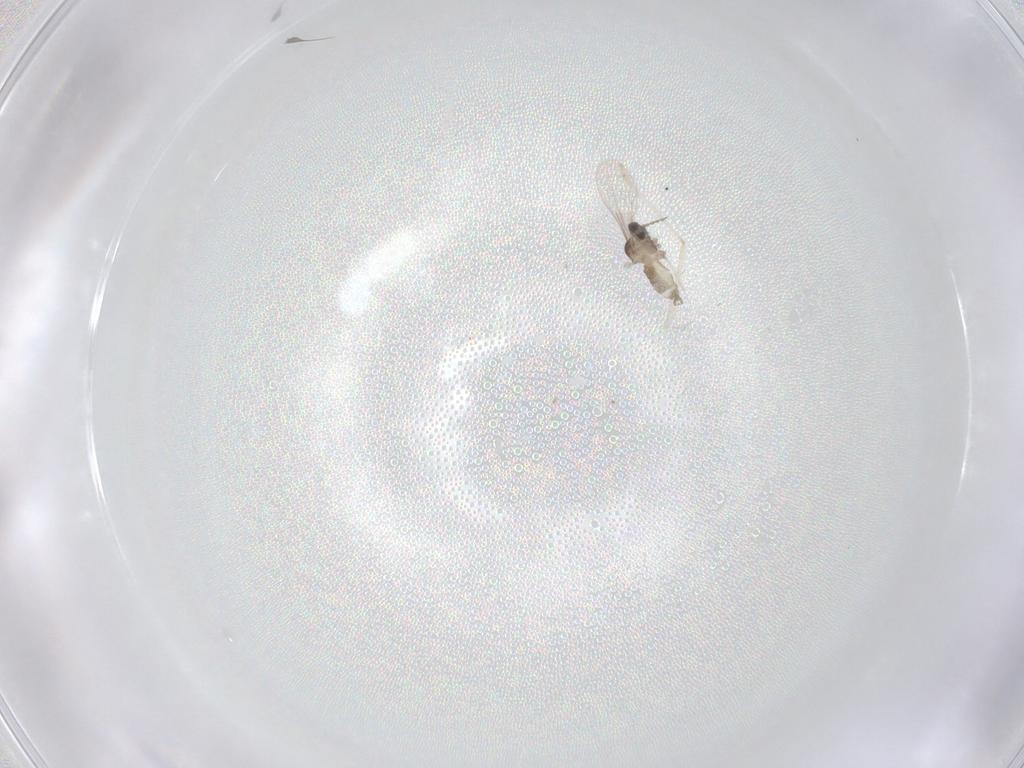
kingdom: Animalia
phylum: Arthropoda
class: Insecta
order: Diptera
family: Cecidomyiidae
